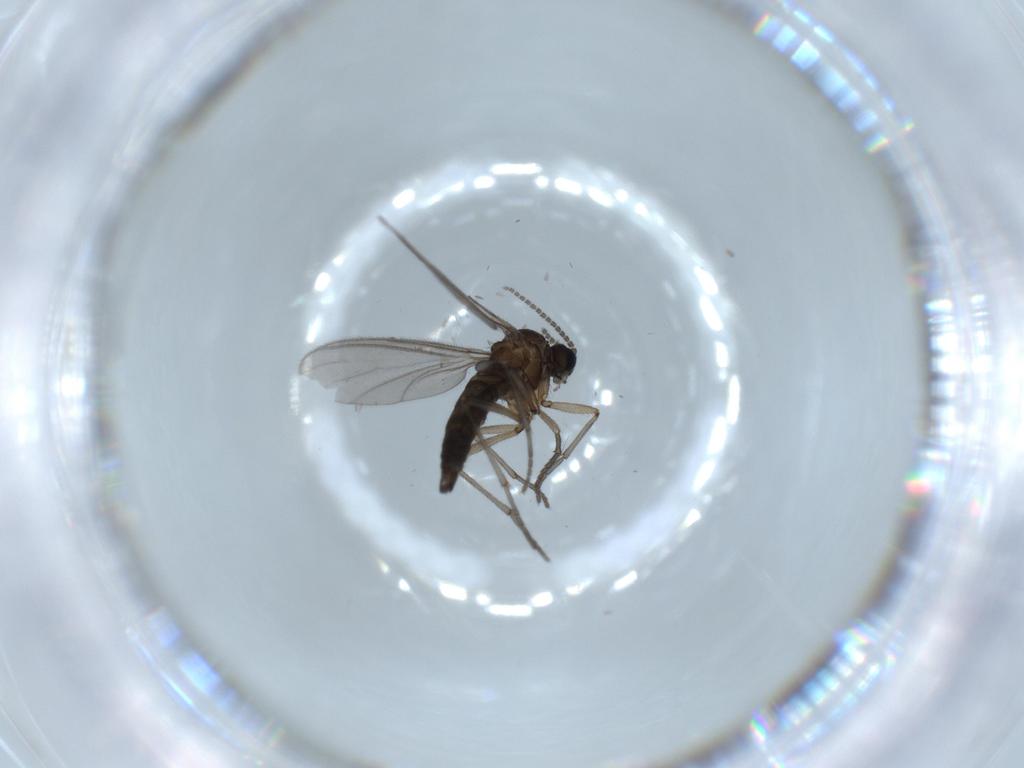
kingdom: Animalia
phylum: Arthropoda
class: Insecta
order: Diptera
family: Sciaridae
